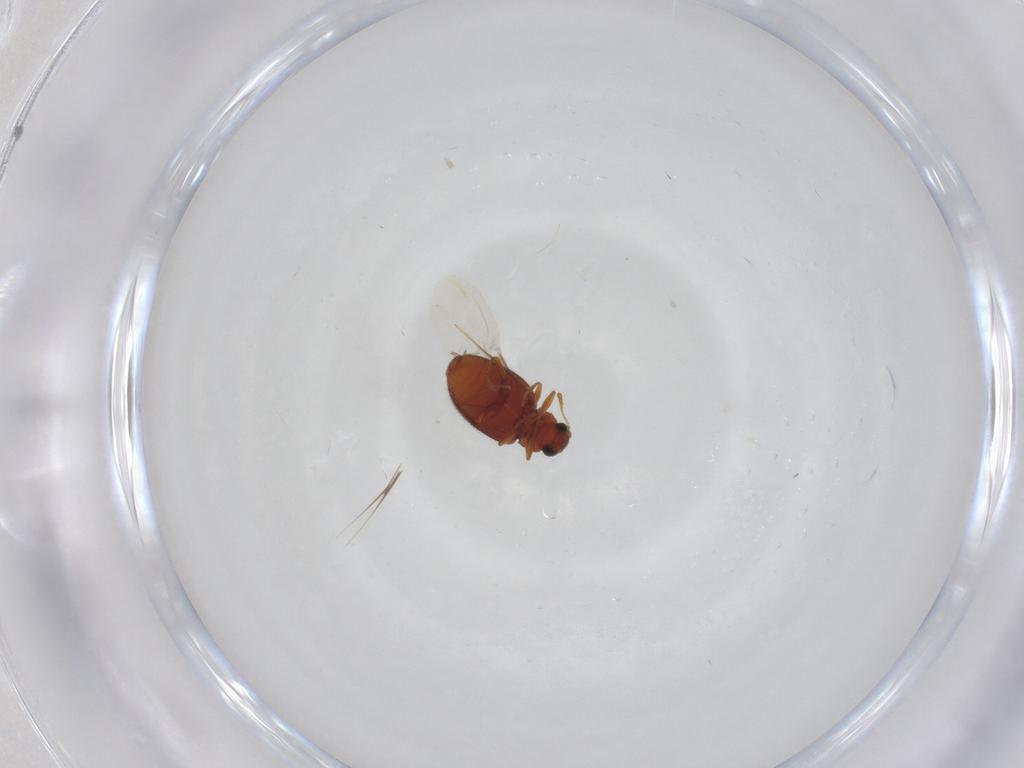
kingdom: Animalia
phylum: Arthropoda
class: Insecta
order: Coleoptera
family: Latridiidae
